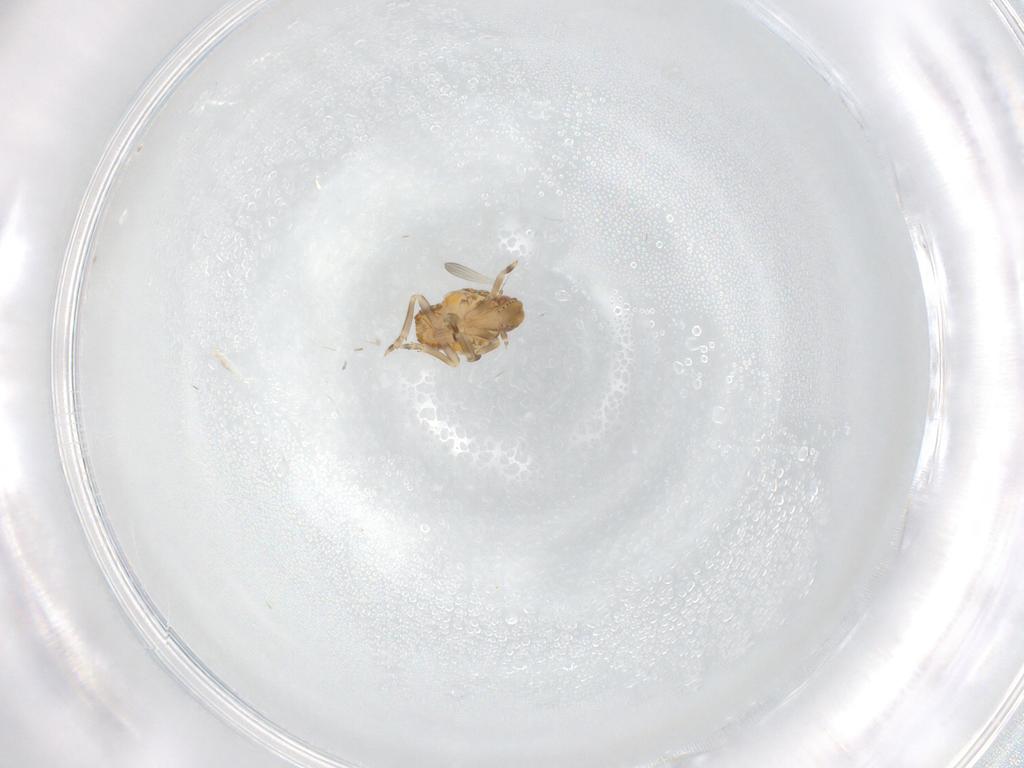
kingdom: Animalia
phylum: Arthropoda
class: Insecta
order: Hemiptera
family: Flatidae
